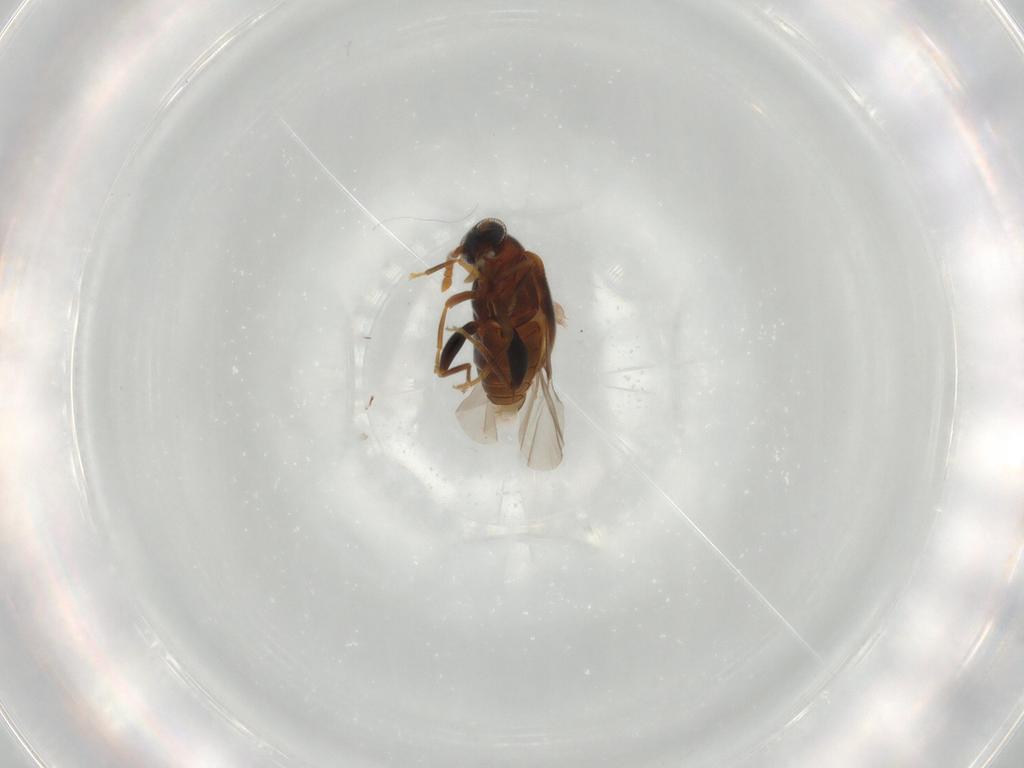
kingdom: Animalia
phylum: Arthropoda
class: Insecta
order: Coleoptera
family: Aderidae
